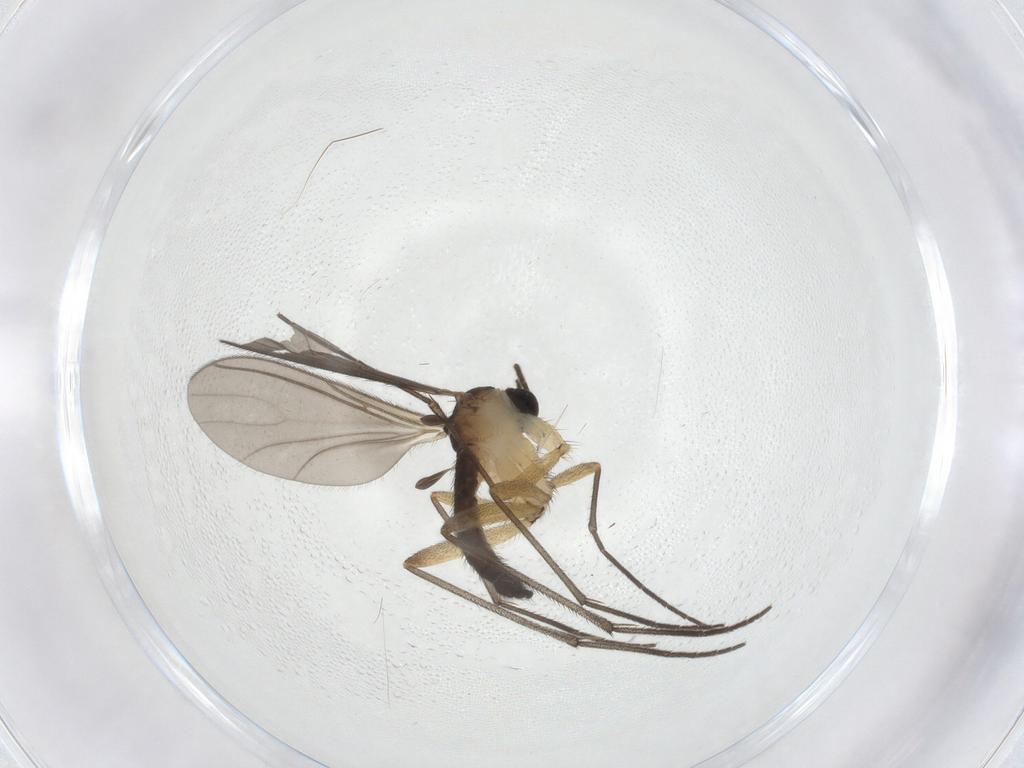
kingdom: Animalia
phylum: Arthropoda
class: Insecta
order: Diptera
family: Sciaridae
